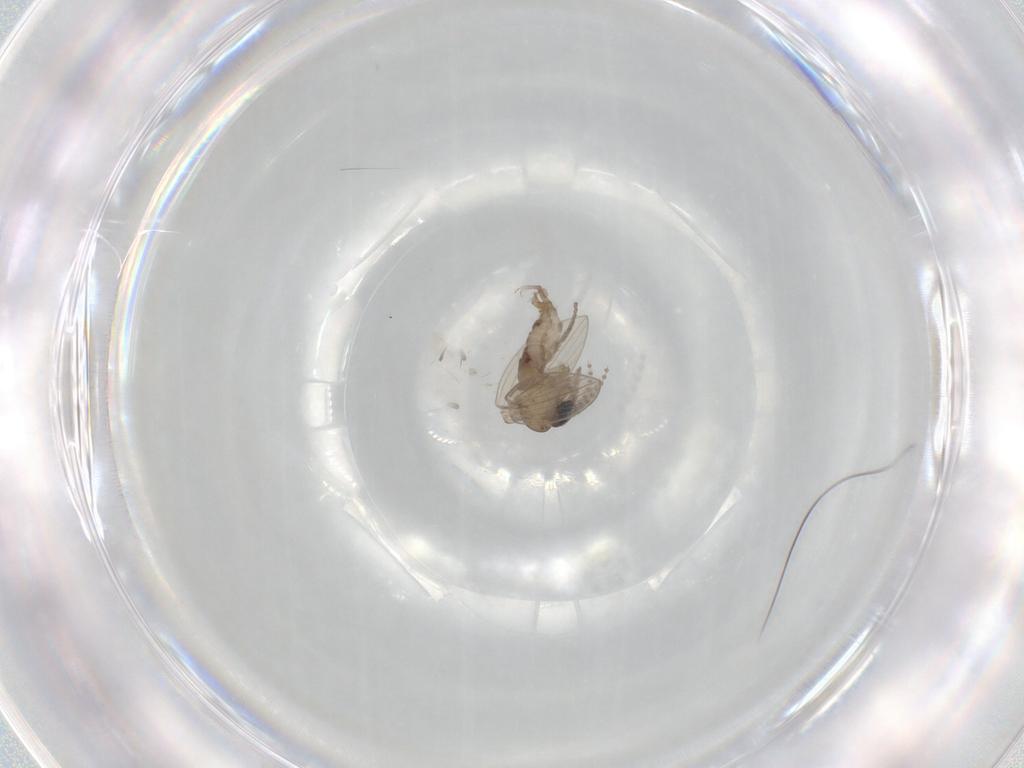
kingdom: Animalia
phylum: Arthropoda
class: Insecta
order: Diptera
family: Psychodidae
